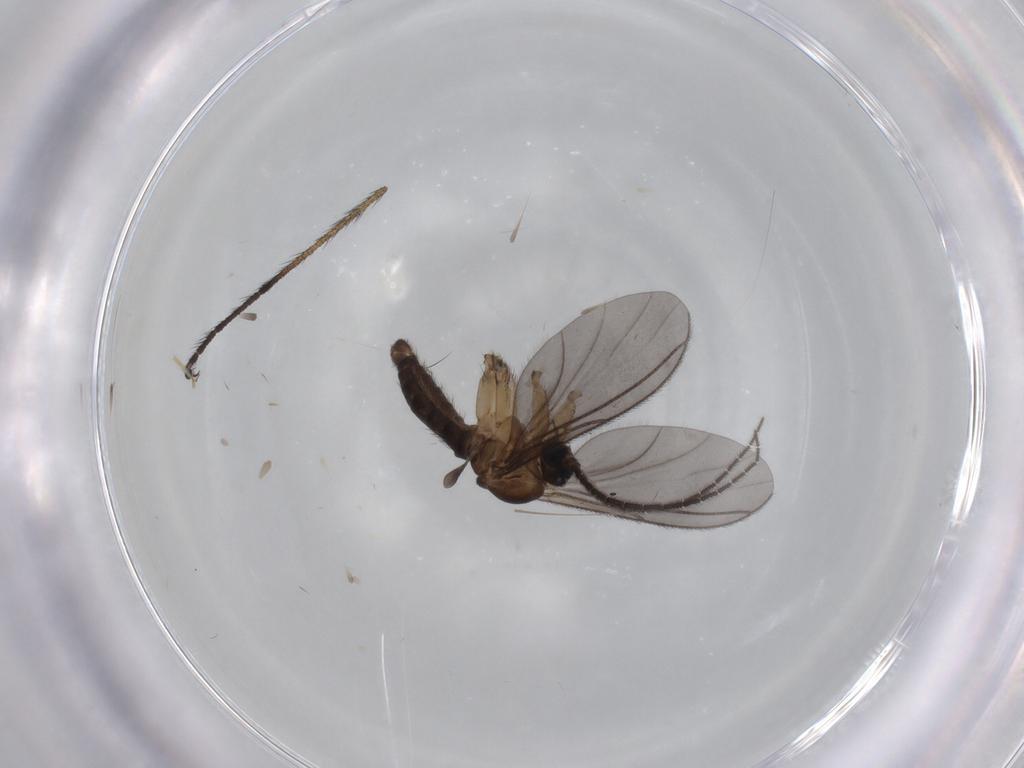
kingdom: Animalia
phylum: Arthropoda
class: Insecta
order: Diptera
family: Limoniidae
